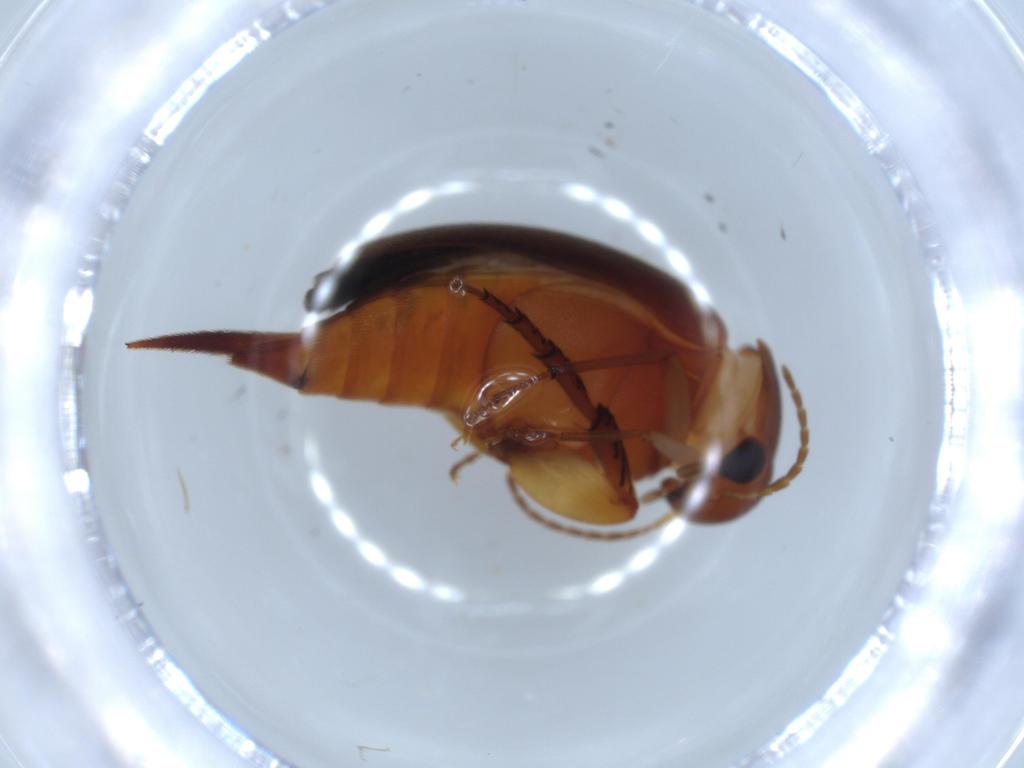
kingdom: Animalia
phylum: Arthropoda
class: Insecta
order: Coleoptera
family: Mordellidae
